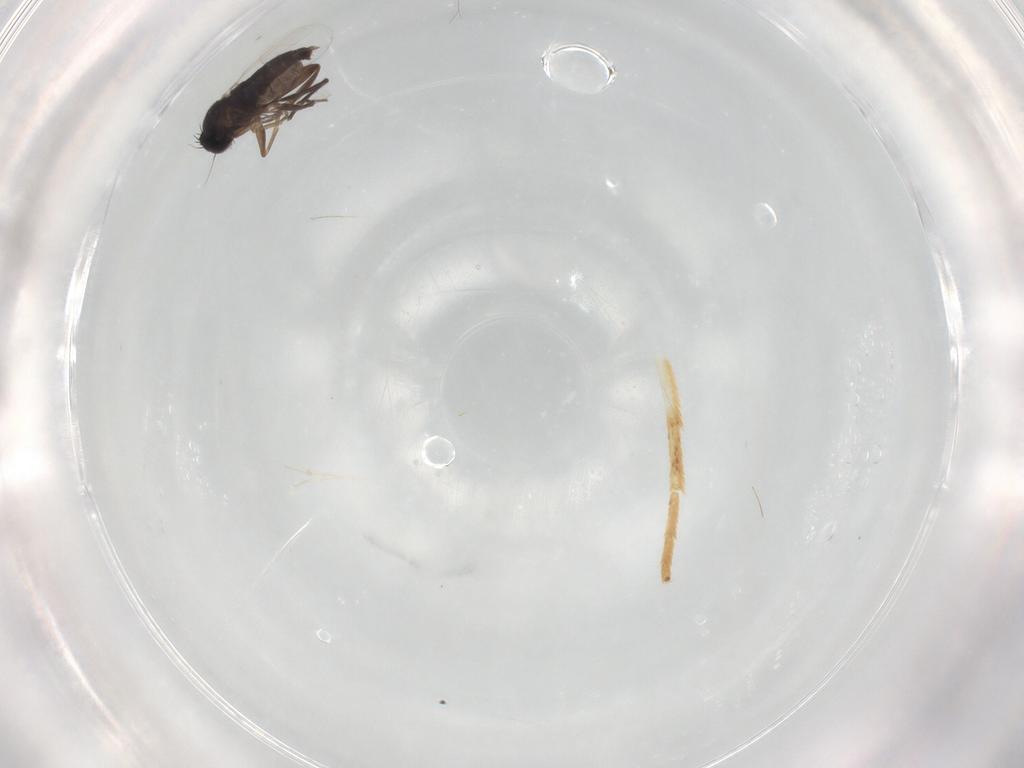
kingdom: Animalia
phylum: Arthropoda
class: Insecta
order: Diptera
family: Phoridae
